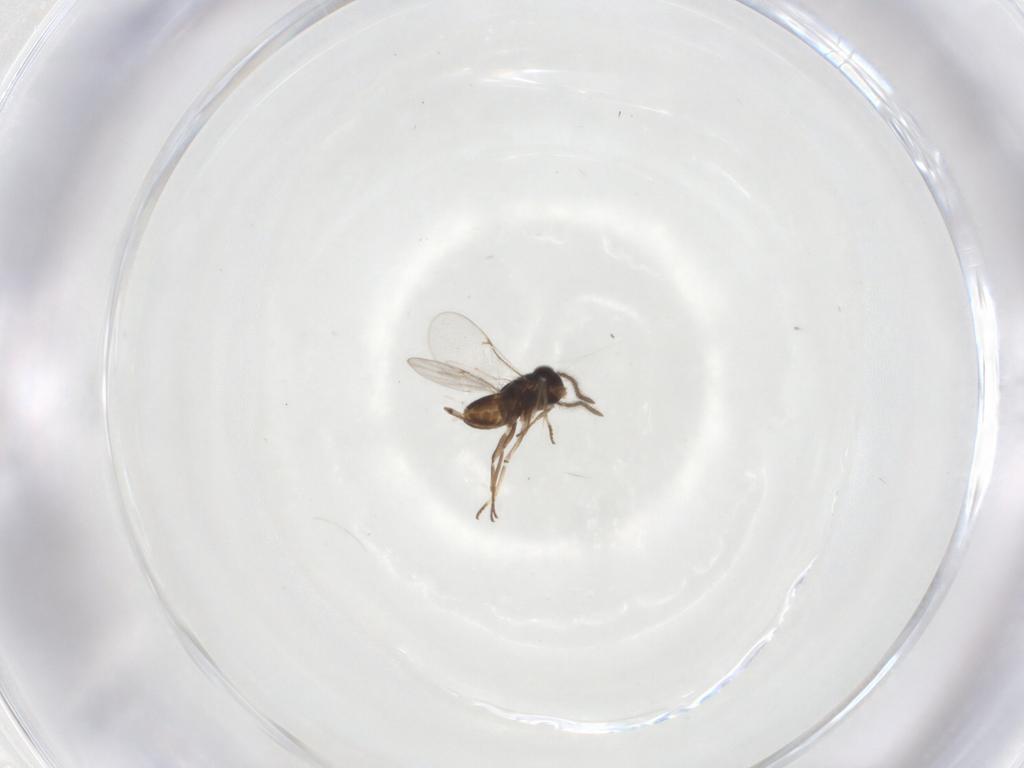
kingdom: Animalia
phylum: Arthropoda
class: Insecta
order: Hymenoptera
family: Encyrtidae
